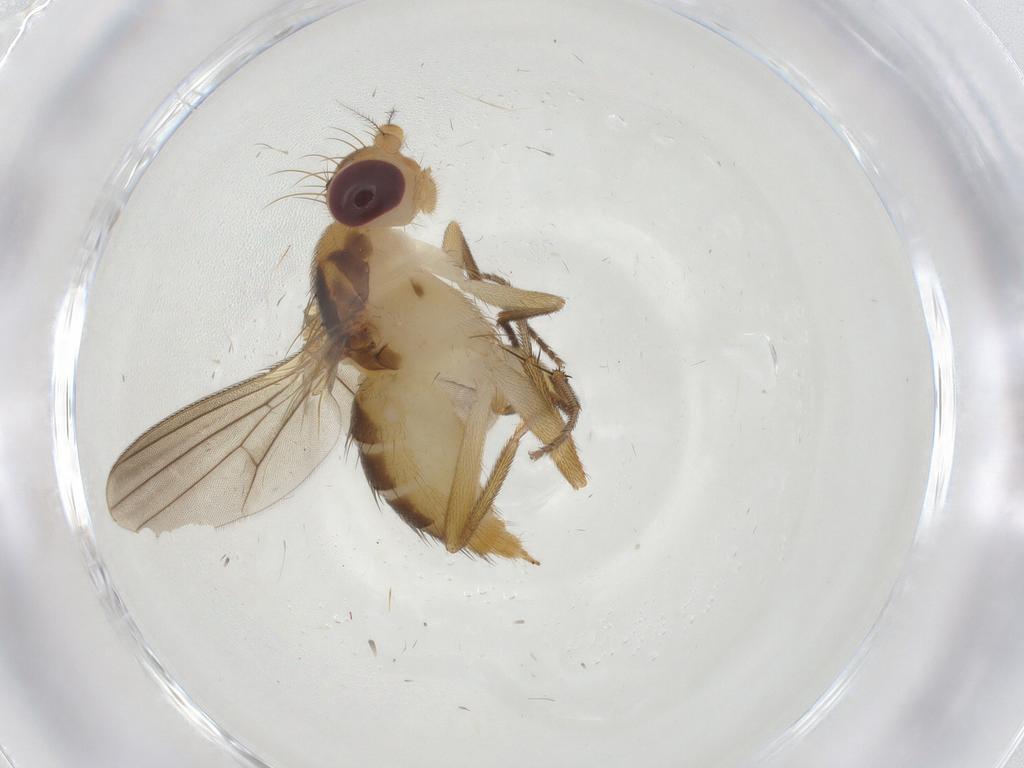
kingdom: Animalia
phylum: Arthropoda
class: Insecta
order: Diptera
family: Clusiidae
